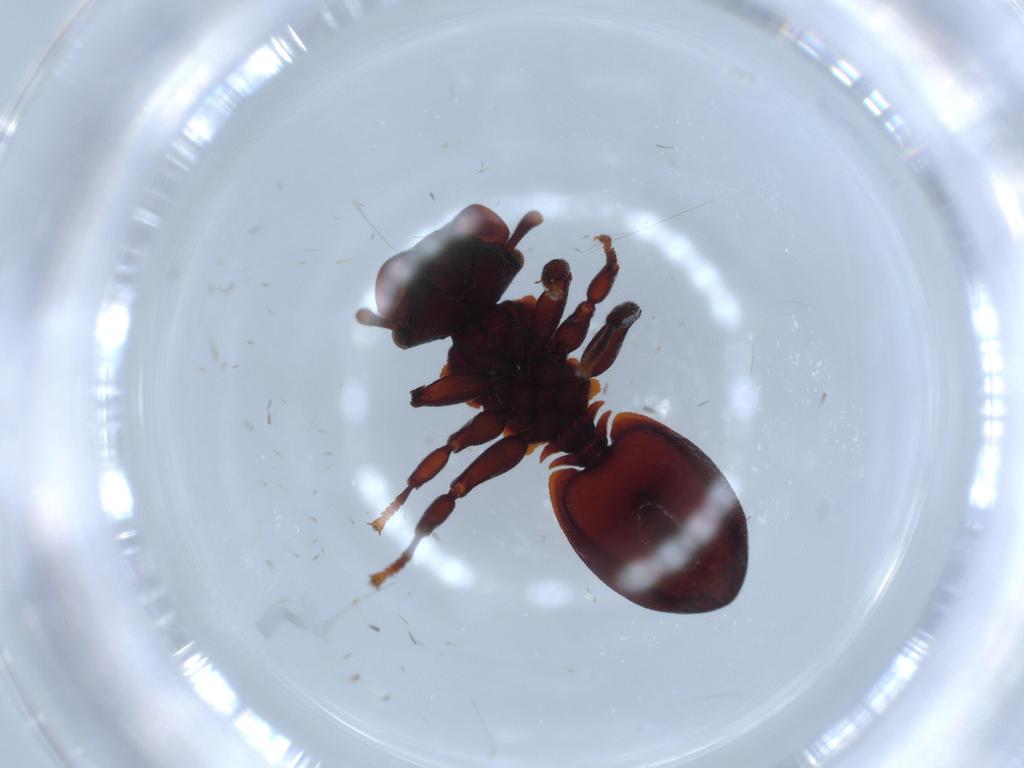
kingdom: Animalia
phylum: Arthropoda
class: Insecta
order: Hymenoptera
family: Formicidae
